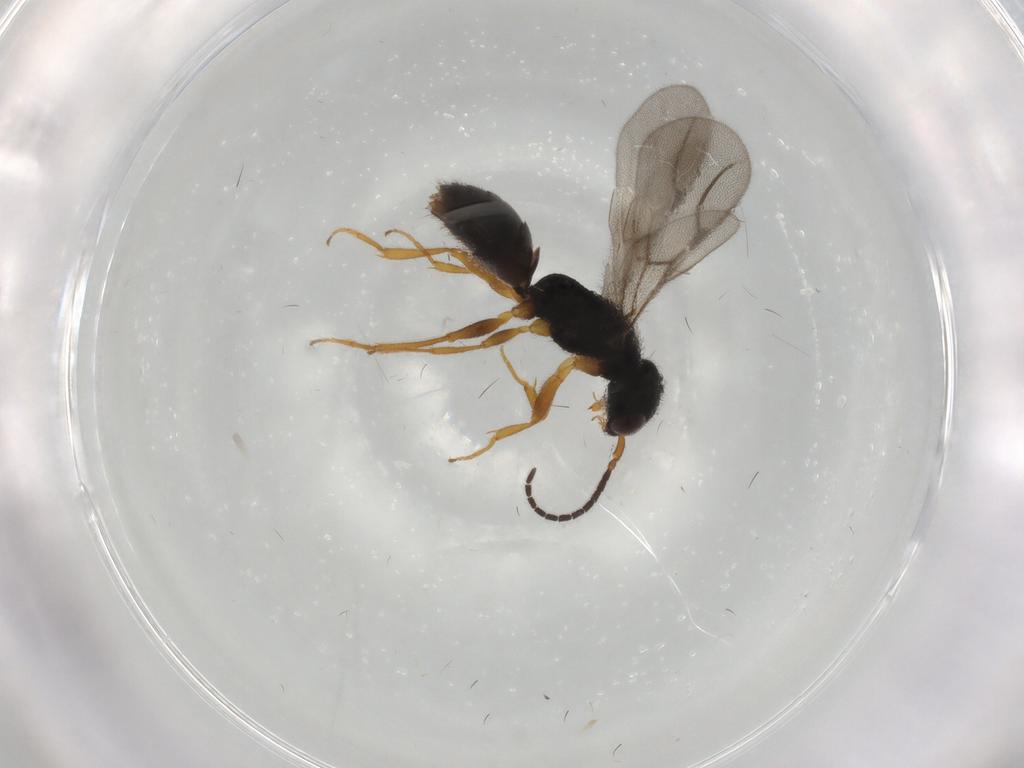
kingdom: Animalia
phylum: Arthropoda
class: Insecta
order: Hymenoptera
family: Bethylidae
